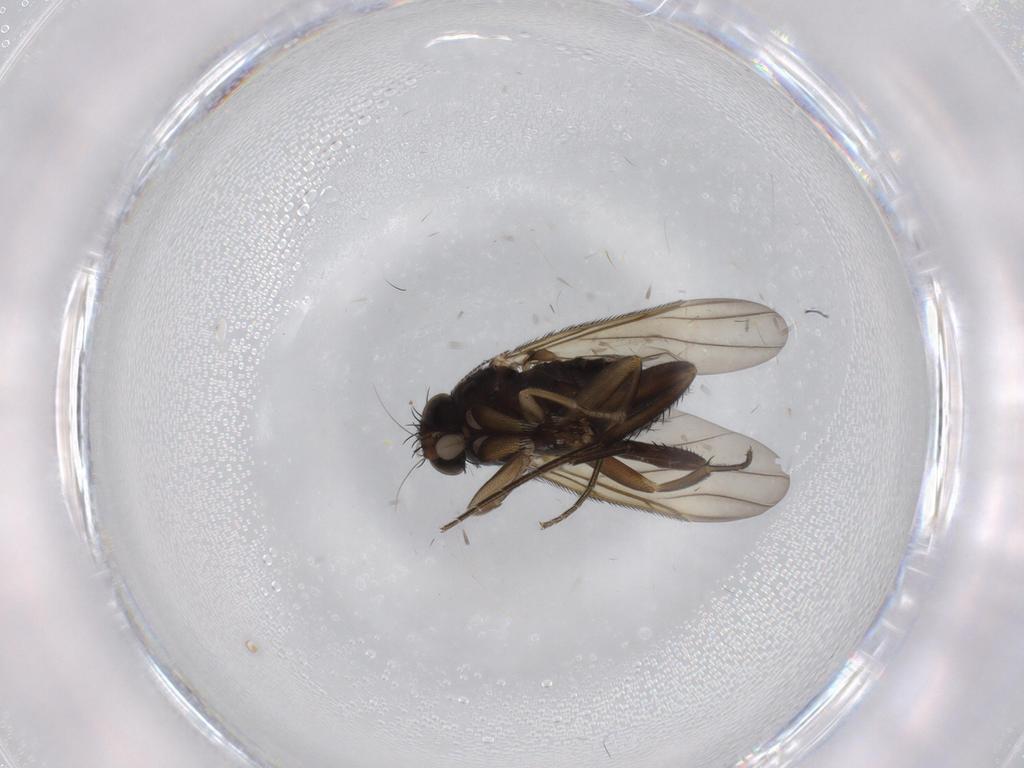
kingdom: Animalia
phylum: Arthropoda
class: Insecta
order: Diptera
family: Phoridae
